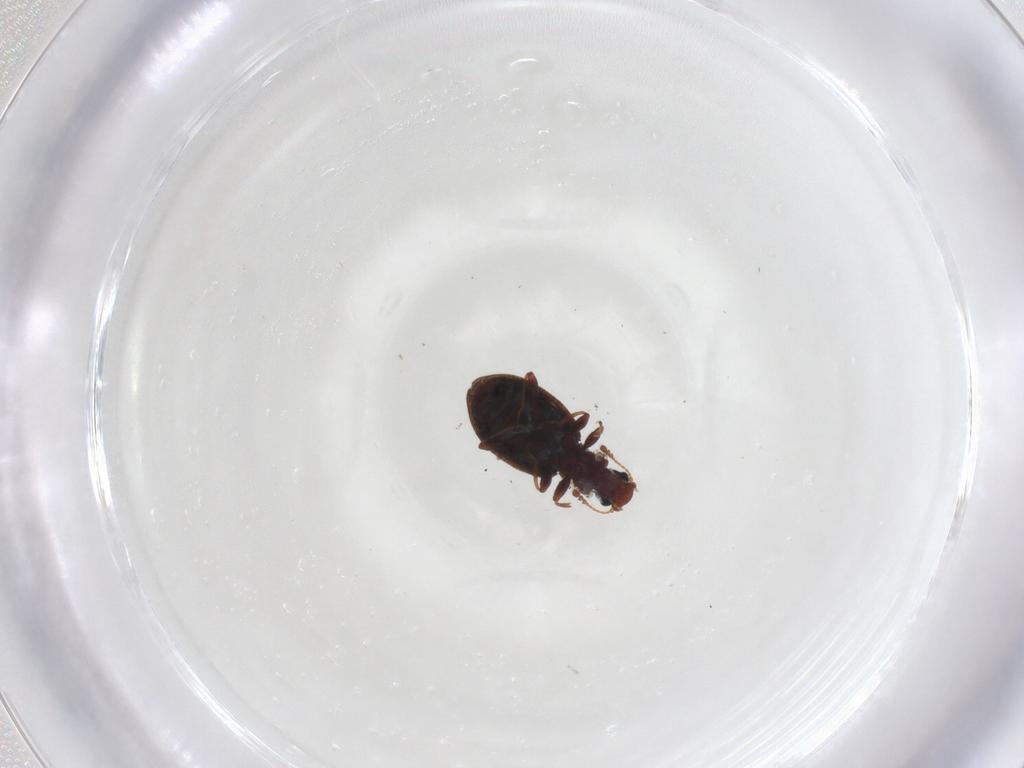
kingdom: Animalia
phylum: Arthropoda
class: Insecta
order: Coleoptera
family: Latridiidae
